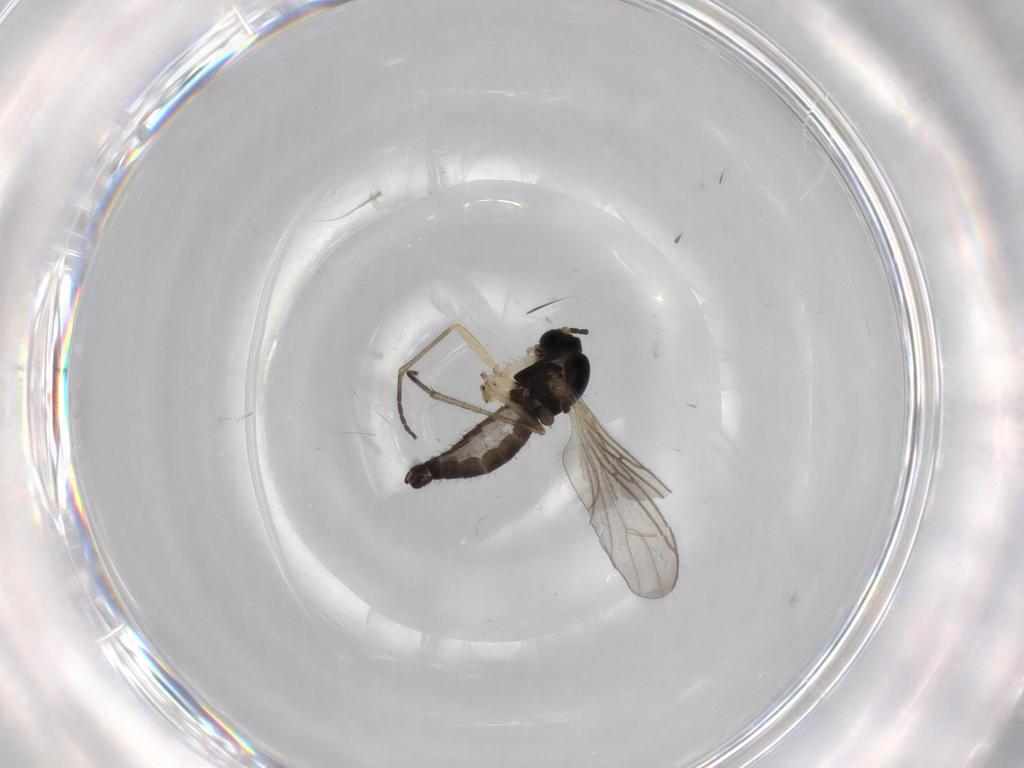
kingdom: Animalia
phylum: Arthropoda
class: Insecta
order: Diptera
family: Sciaridae
